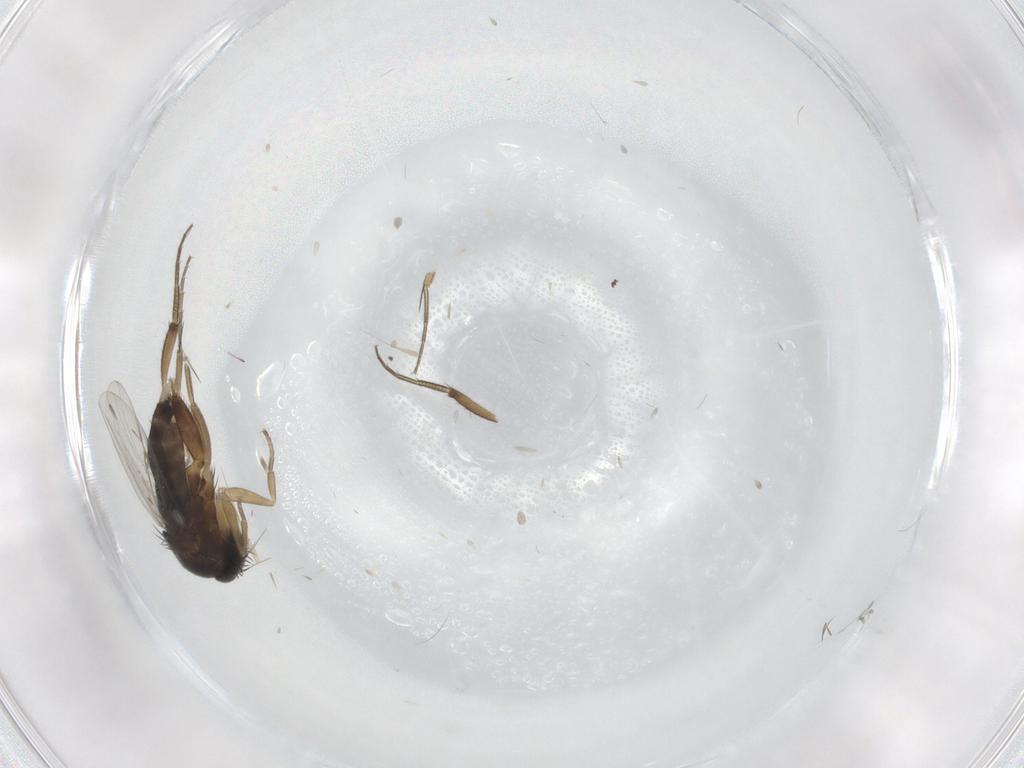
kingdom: Animalia
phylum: Arthropoda
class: Insecta
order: Diptera
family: Phoridae
